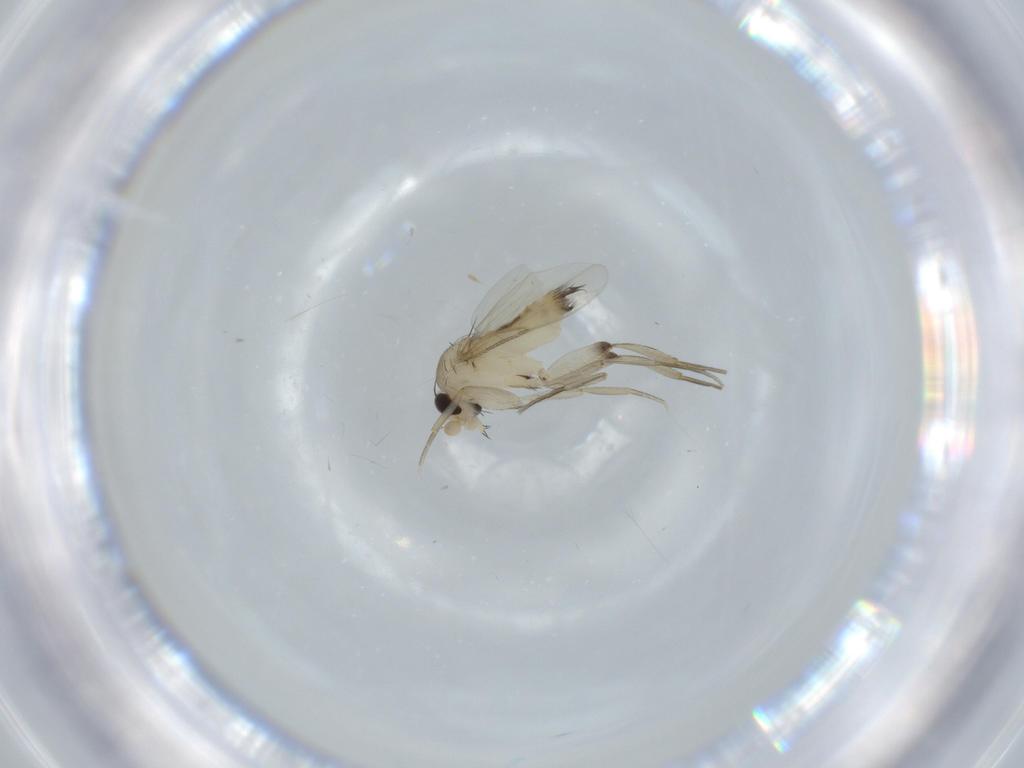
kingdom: Animalia
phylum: Arthropoda
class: Insecta
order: Diptera
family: Phoridae
